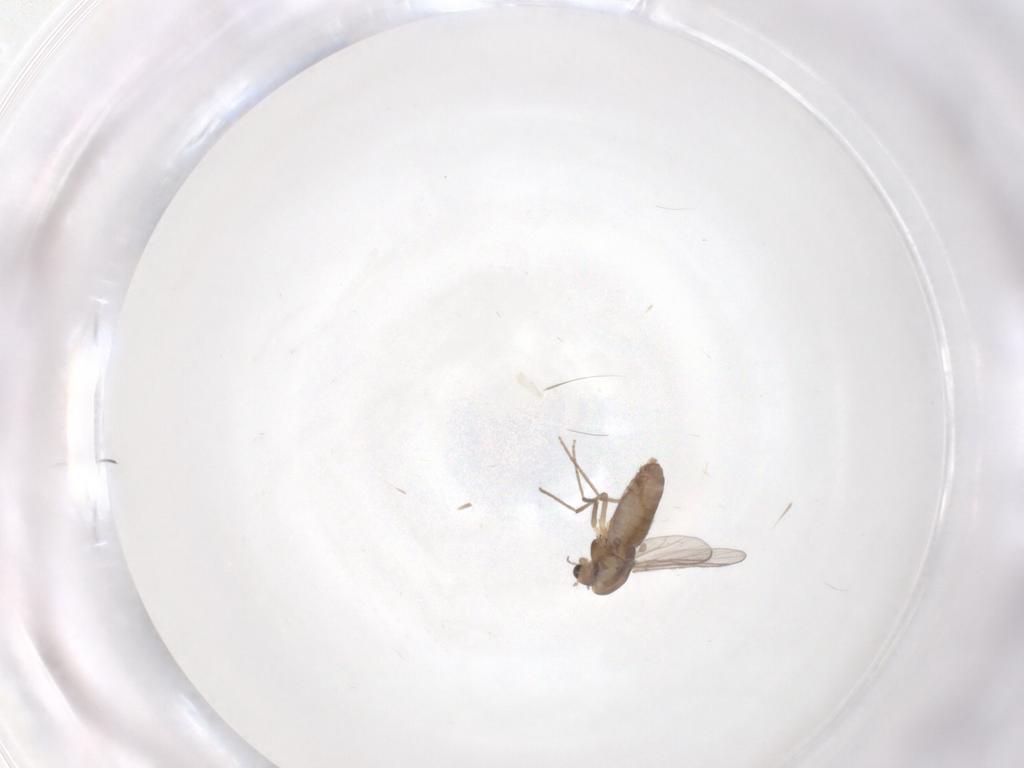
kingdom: Animalia
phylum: Arthropoda
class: Insecta
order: Diptera
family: Chironomidae
